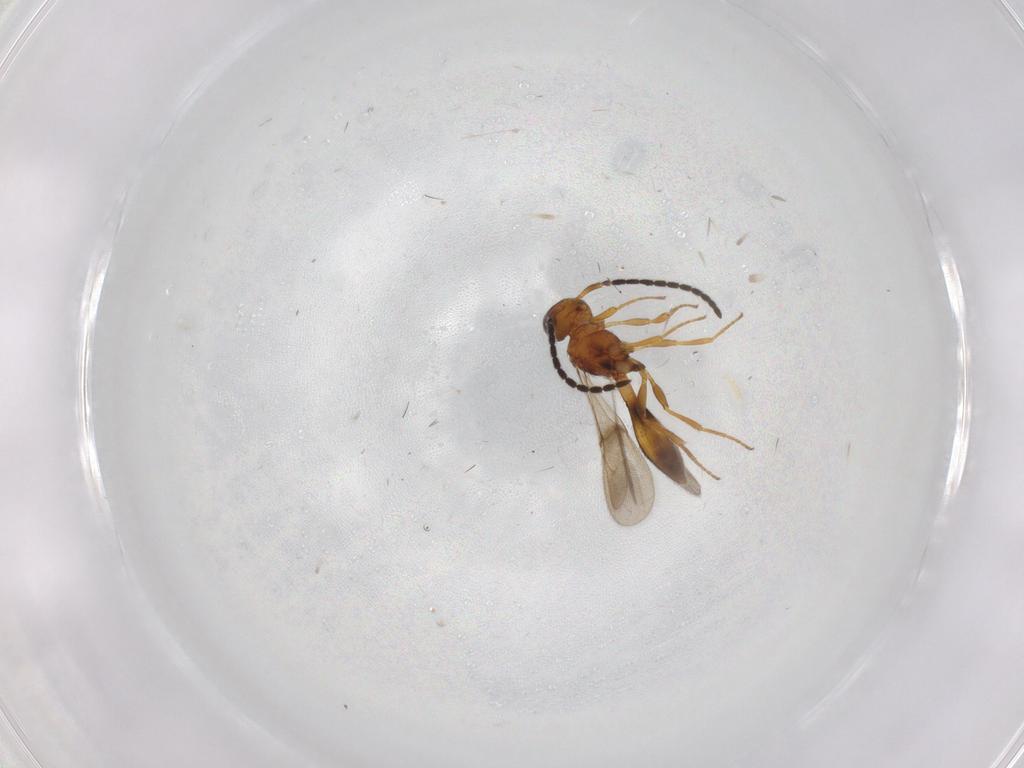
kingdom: Animalia
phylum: Arthropoda
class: Insecta
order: Hymenoptera
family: Scelionidae
